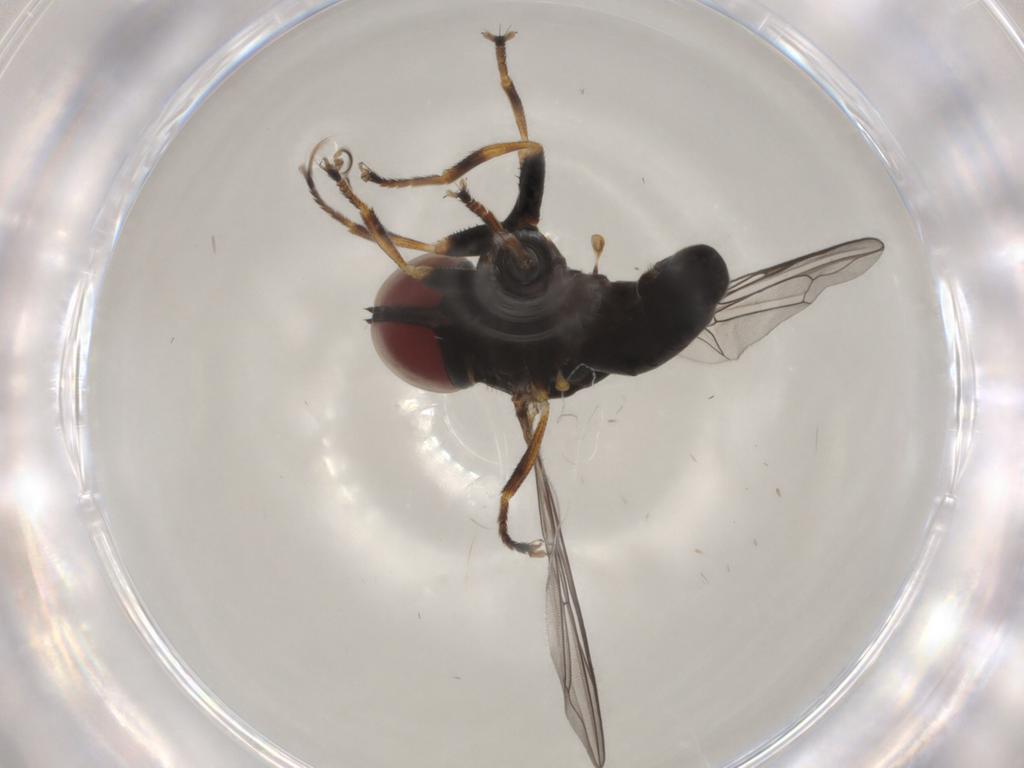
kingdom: Animalia
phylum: Arthropoda
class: Insecta
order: Diptera
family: Pipunculidae
